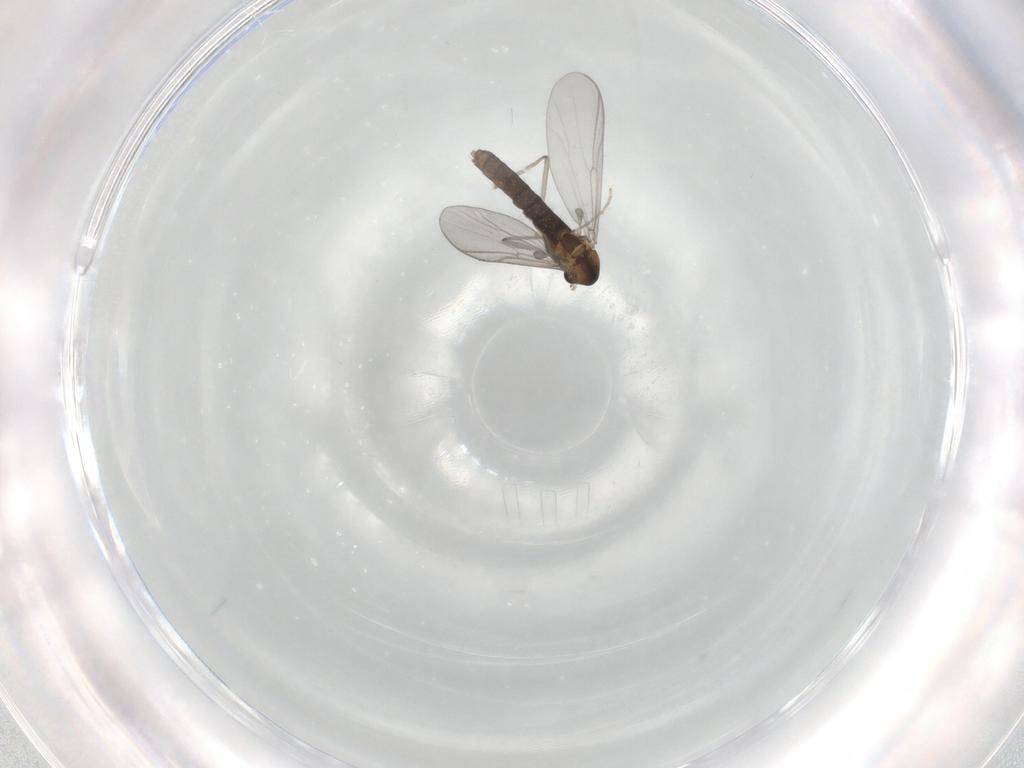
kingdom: Animalia
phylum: Arthropoda
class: Insecta
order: Diptera
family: Chironomidae
